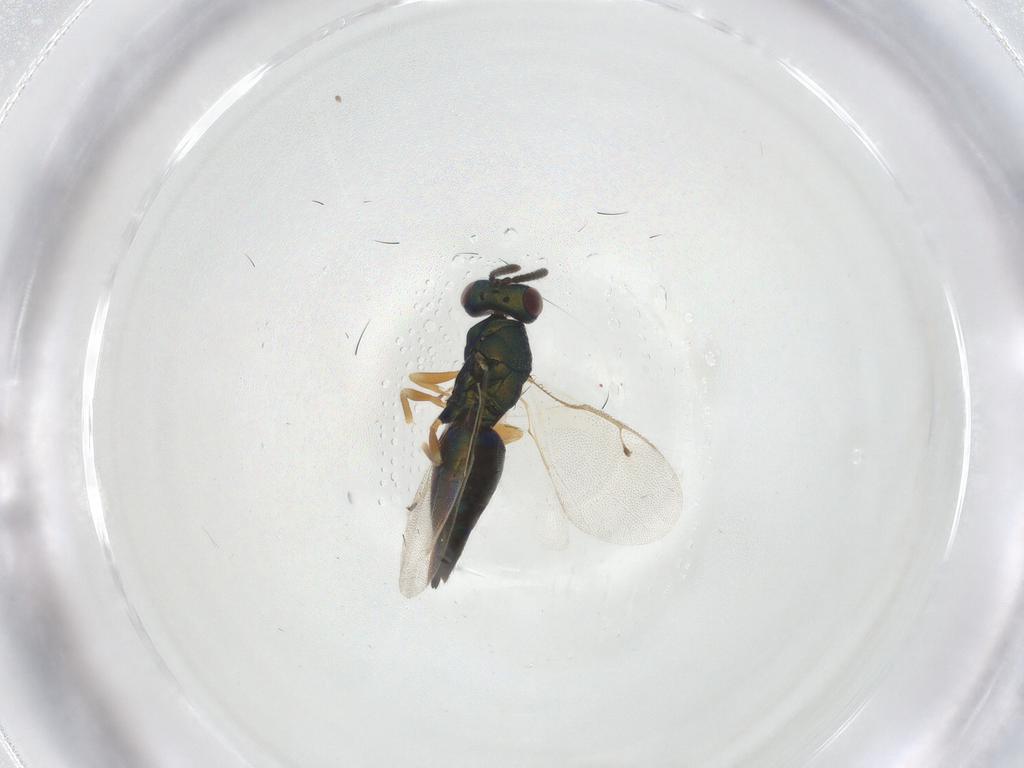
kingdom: Animalia
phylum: Arthropoda
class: Insecta
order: Hymenoptera
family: Pteromalidae
